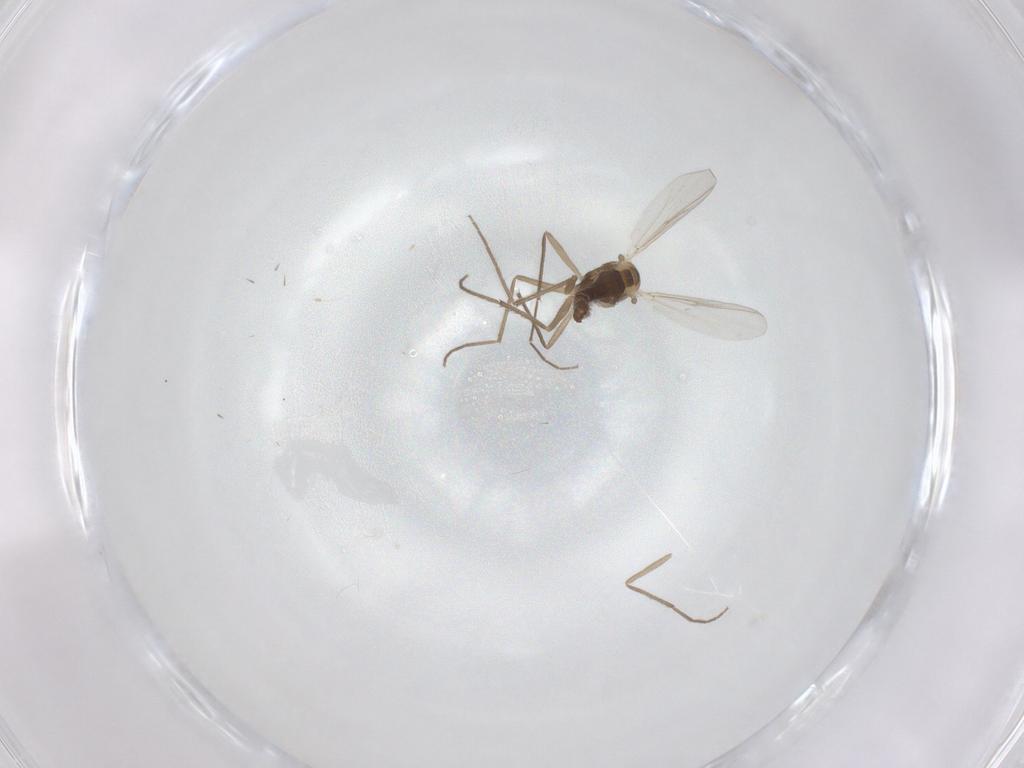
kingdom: Animalia
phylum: Arthropoda
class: Insecta
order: Diptera
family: Chironomidae
